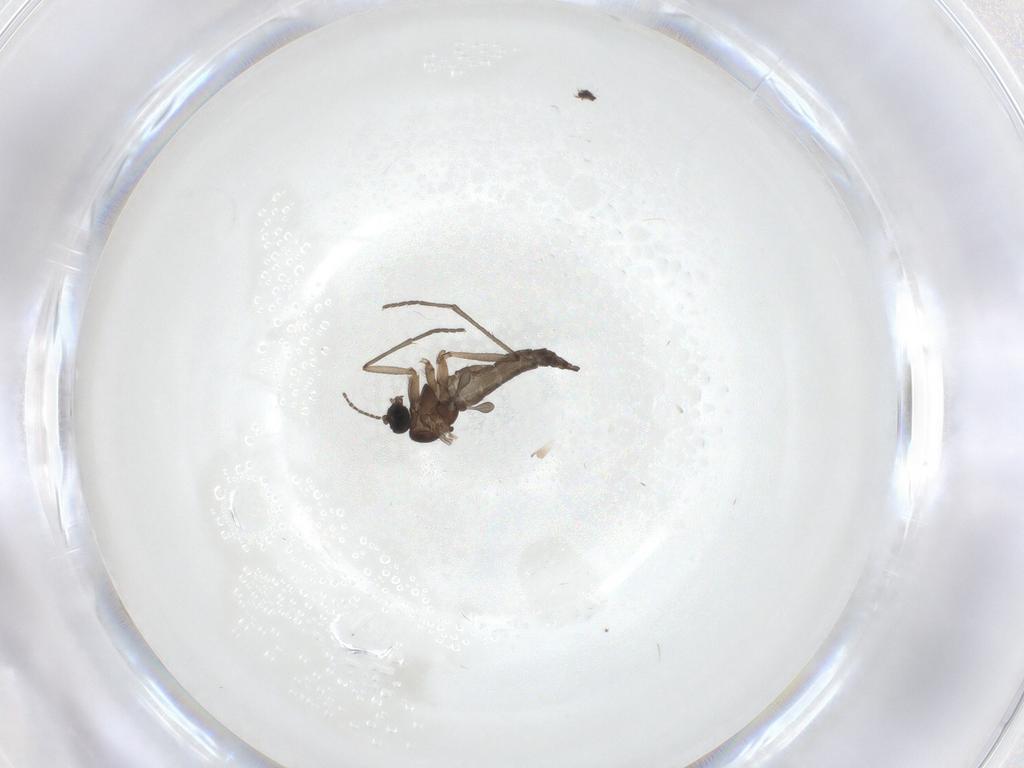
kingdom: Animalia
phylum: Arthropoda
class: Insecta
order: Diptera
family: Sciaridae
